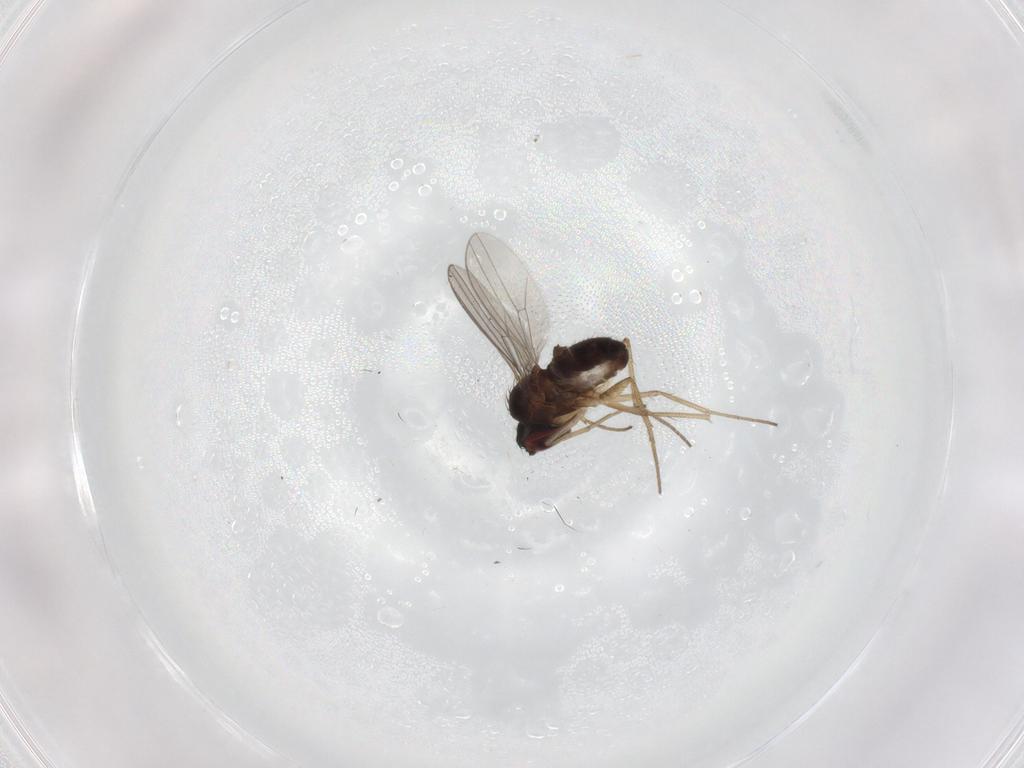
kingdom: Animalia
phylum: Arthropoda
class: Insecta
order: Diptera
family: Dolichopodidae
